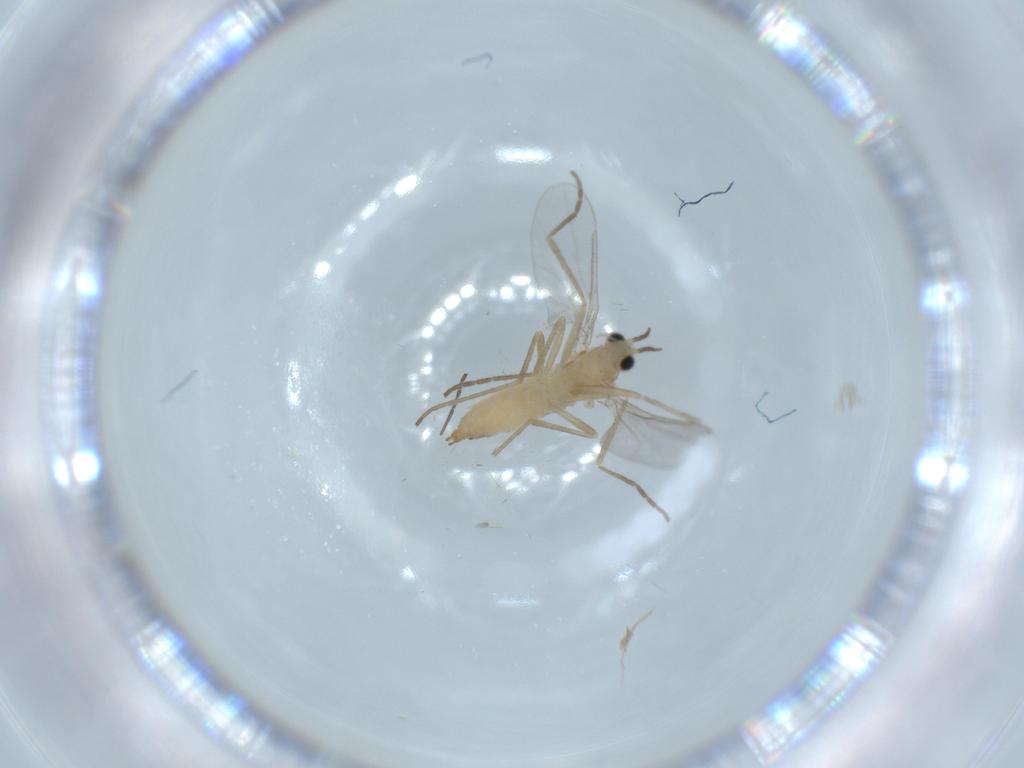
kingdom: Animalia
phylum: Arthropoda
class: Insecta
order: Diptera
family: Cecidomyiidae
